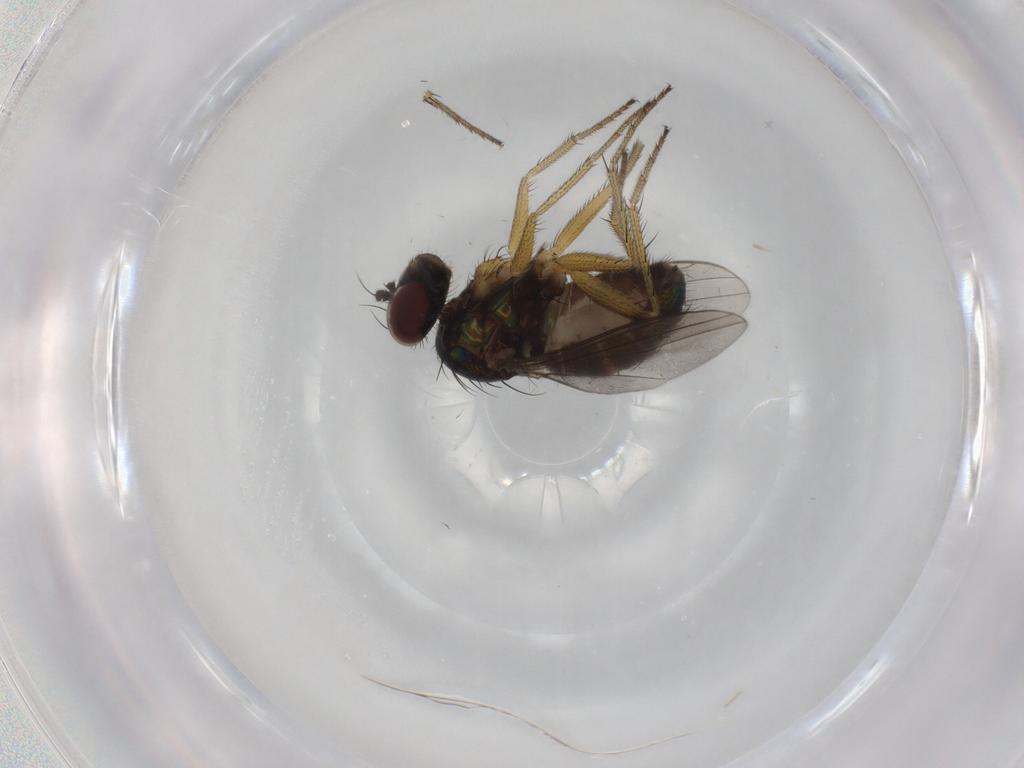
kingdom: Animalia
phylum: Arthropoda
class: Insecta
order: Diptera
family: Dolichopodidae
